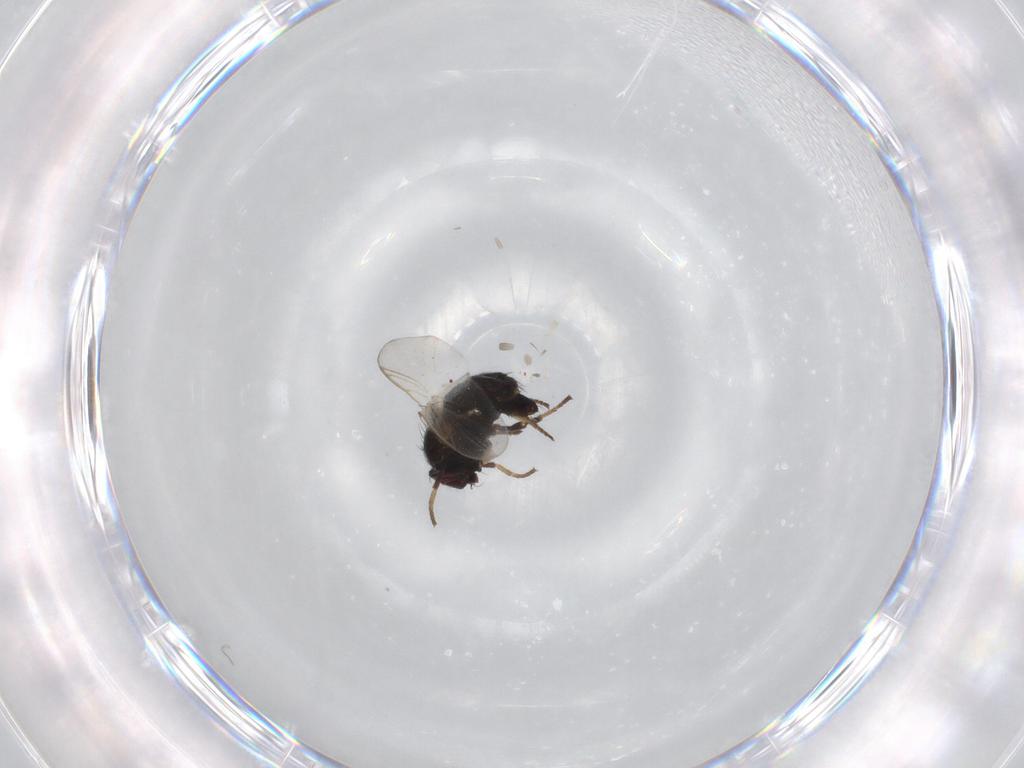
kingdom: Animalia
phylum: Arthropoda
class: Insecta
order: Diptera
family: Agromyzidae
